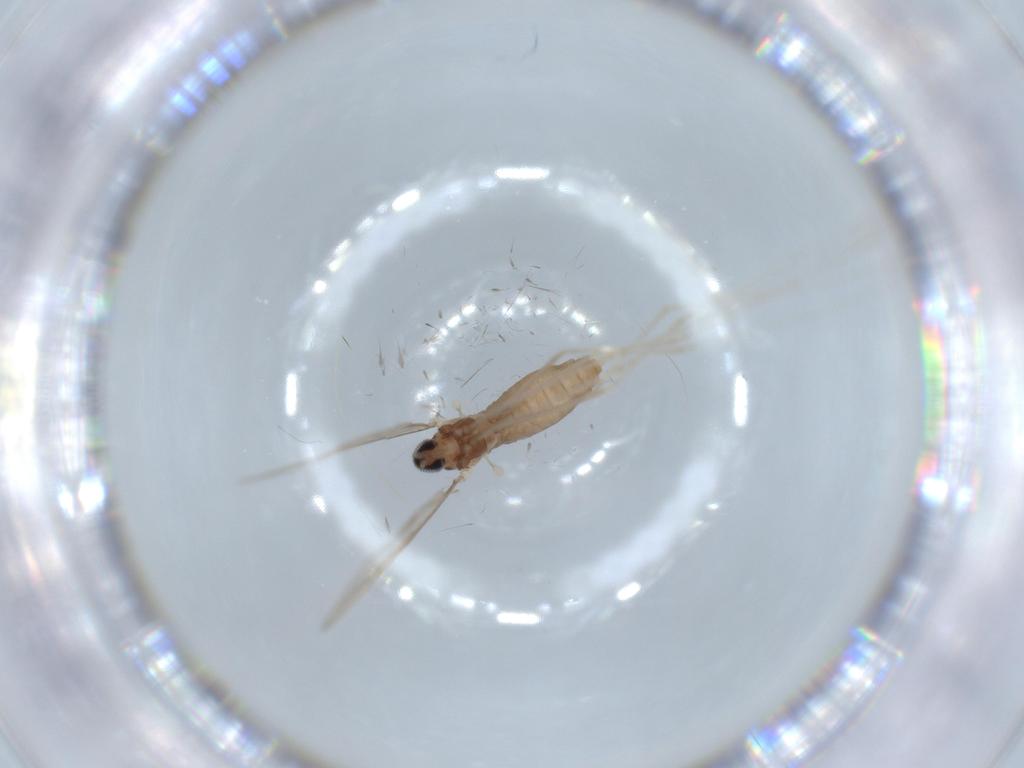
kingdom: Animalia
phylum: Arthropoda
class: Insecta
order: Diptera
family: Cecidomyiidae
